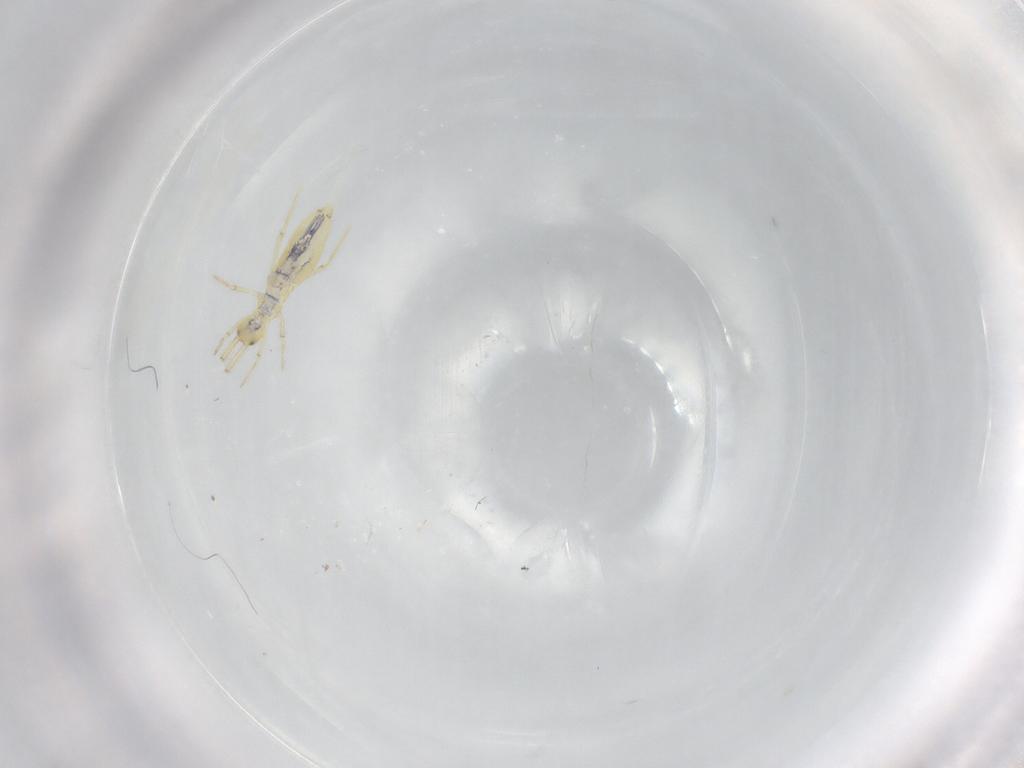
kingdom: Animalia
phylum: Arthropoda
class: Collembola
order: Entomobryomorpha
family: Paronellidae
